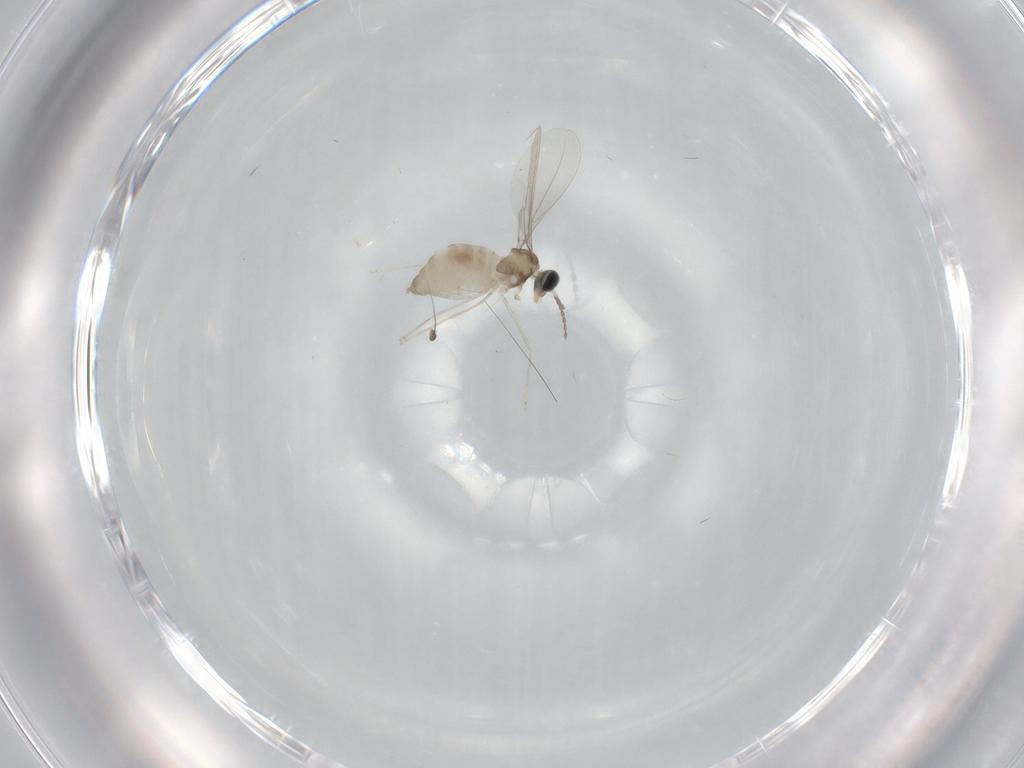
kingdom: Animalia
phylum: Arthropoda
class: Insecta
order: Diptera
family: Cecidomyiidae
